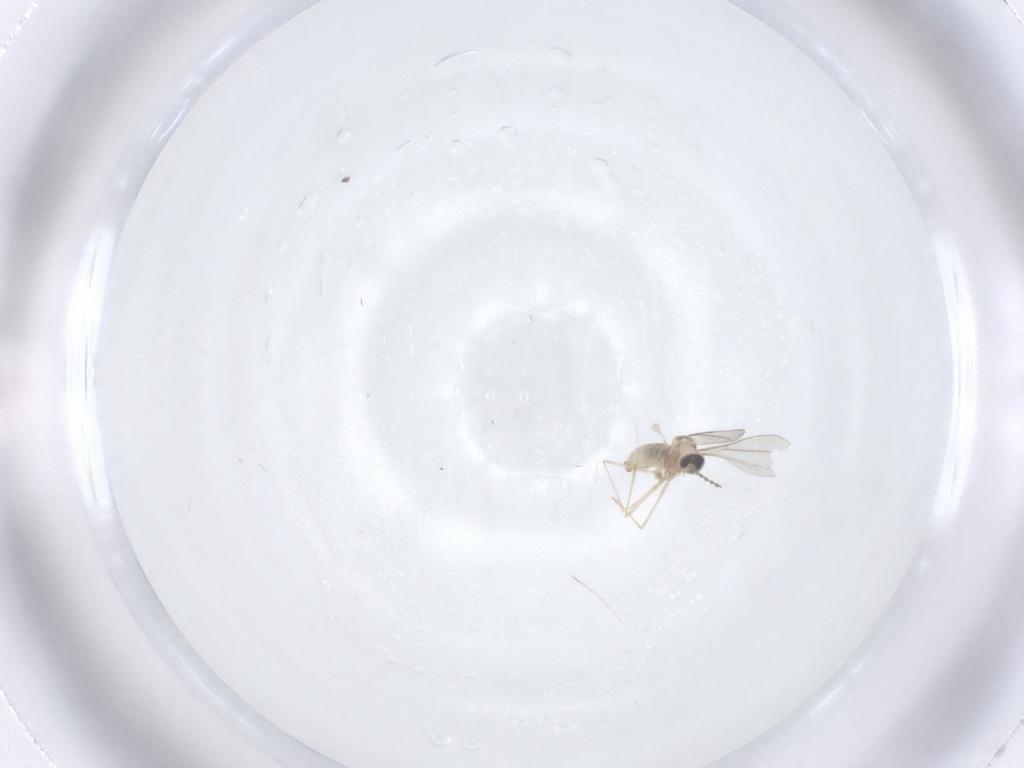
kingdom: Animalia
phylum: Arthropoda
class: Insecta
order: Diptera
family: Cecidomyiidae
